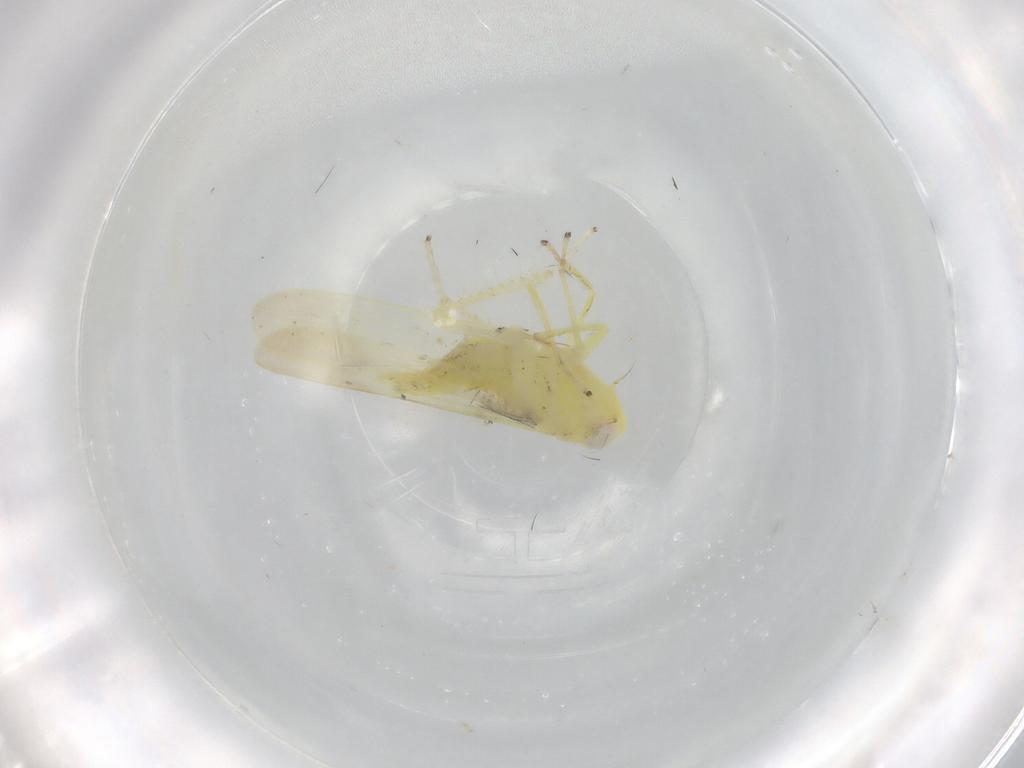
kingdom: Animalia
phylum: Arthropoda
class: Insecta
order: Hemiptera
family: Cicadellidae
